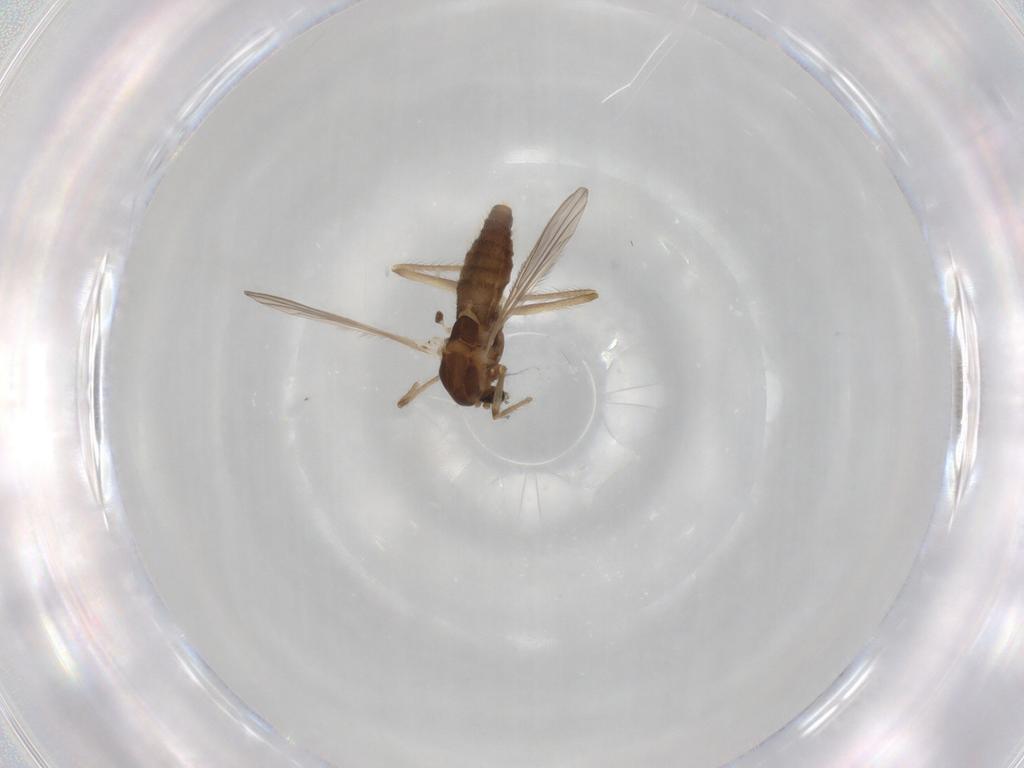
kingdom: Animalia
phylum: Arthropoda
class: Insecta
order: Diptera
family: Chironomidae
